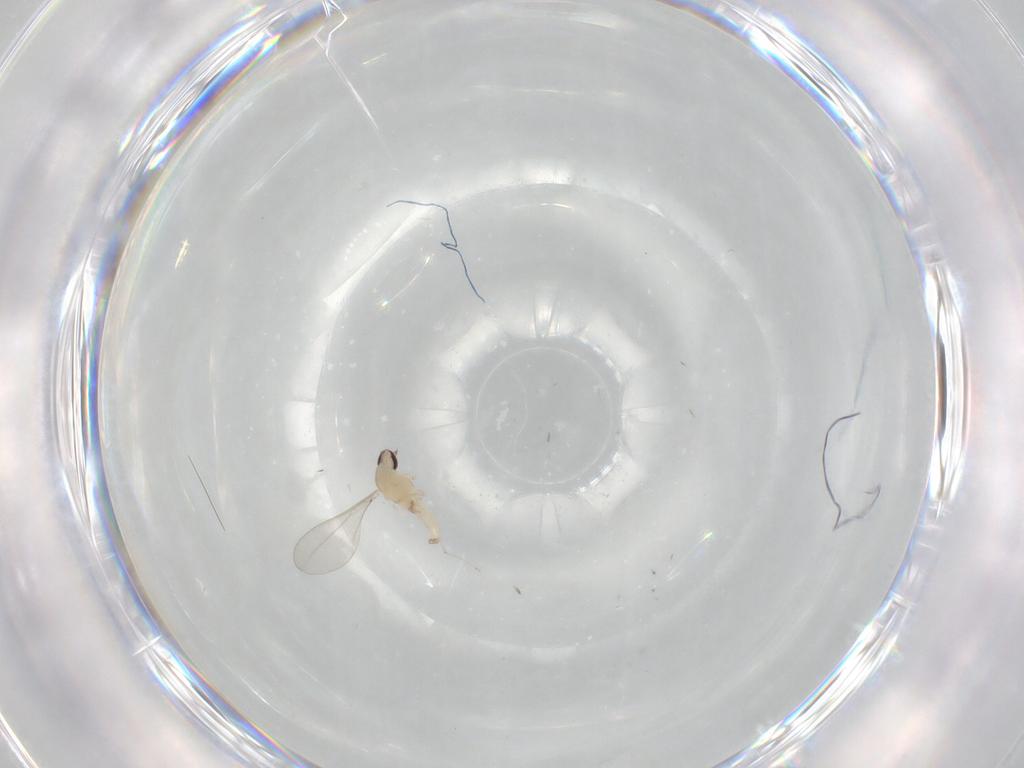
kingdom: Animalia
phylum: Arthropoda
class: Insecta
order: Diptera
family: Cecidomyiidae
